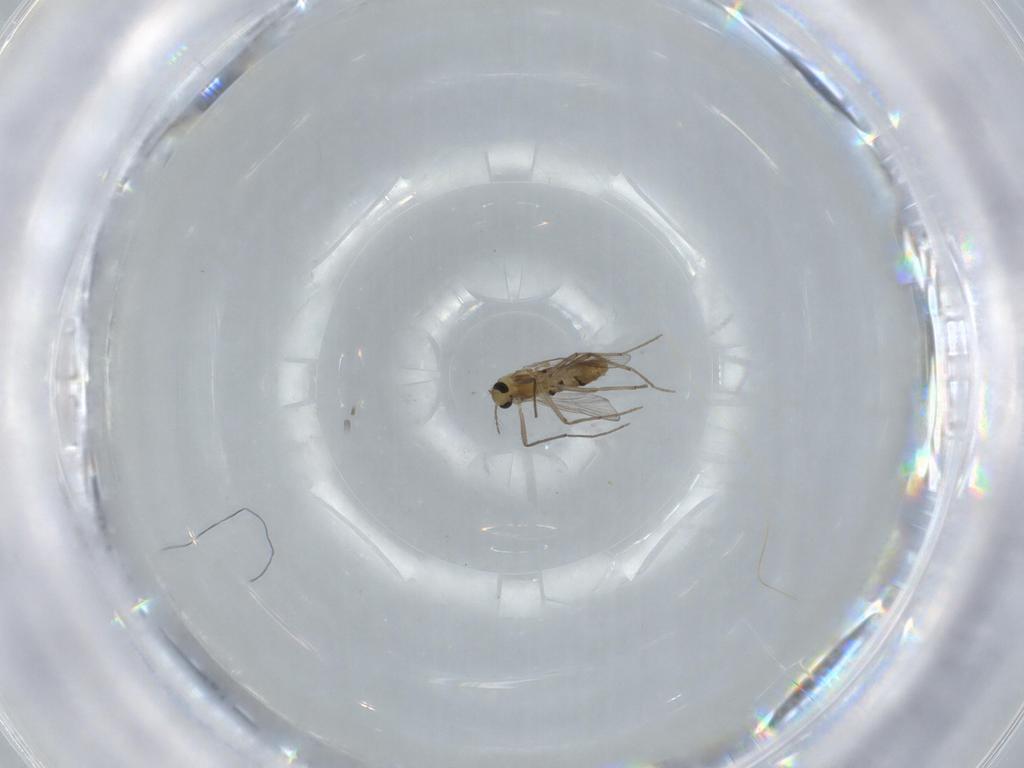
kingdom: Animalia
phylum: Arthropoda
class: Insecta
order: Diptera
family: Chironomidae
